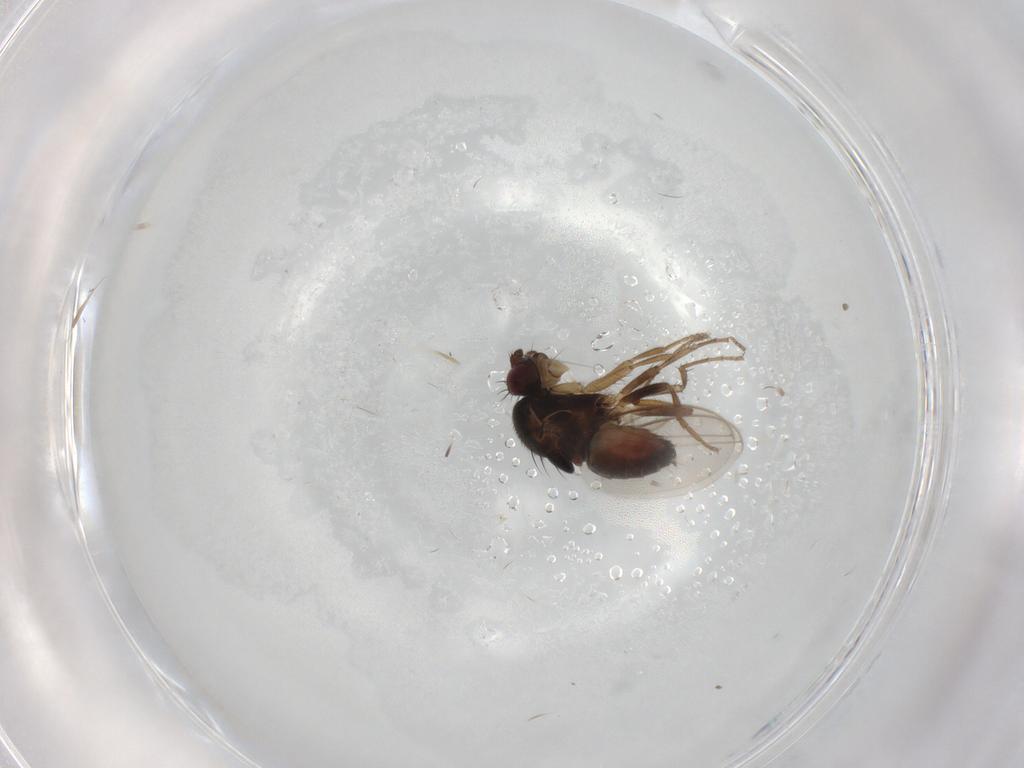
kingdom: Animalia
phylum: Arthropoda
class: Insecta
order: Diptera
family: Sphaeroceridae
